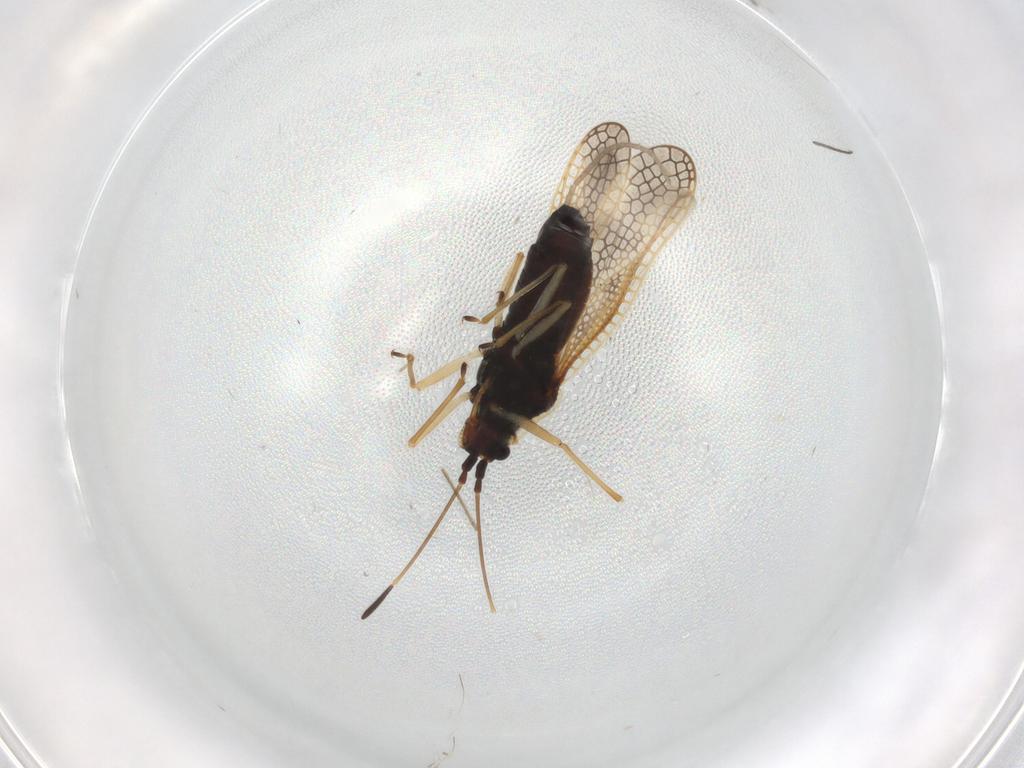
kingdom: Animalia
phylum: Arthropoda
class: Insecta
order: Hemiptera
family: Tingidae
